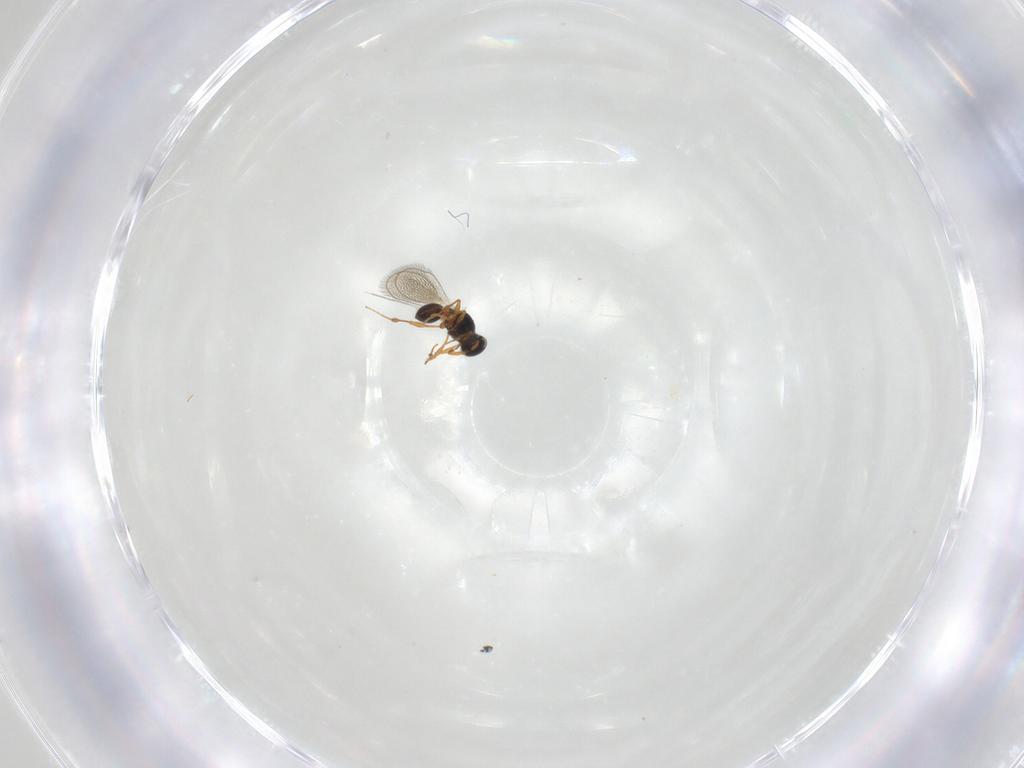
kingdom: Animalia
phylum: Arthropoda
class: Insecta
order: Hymenoptera
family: Platygastridae
